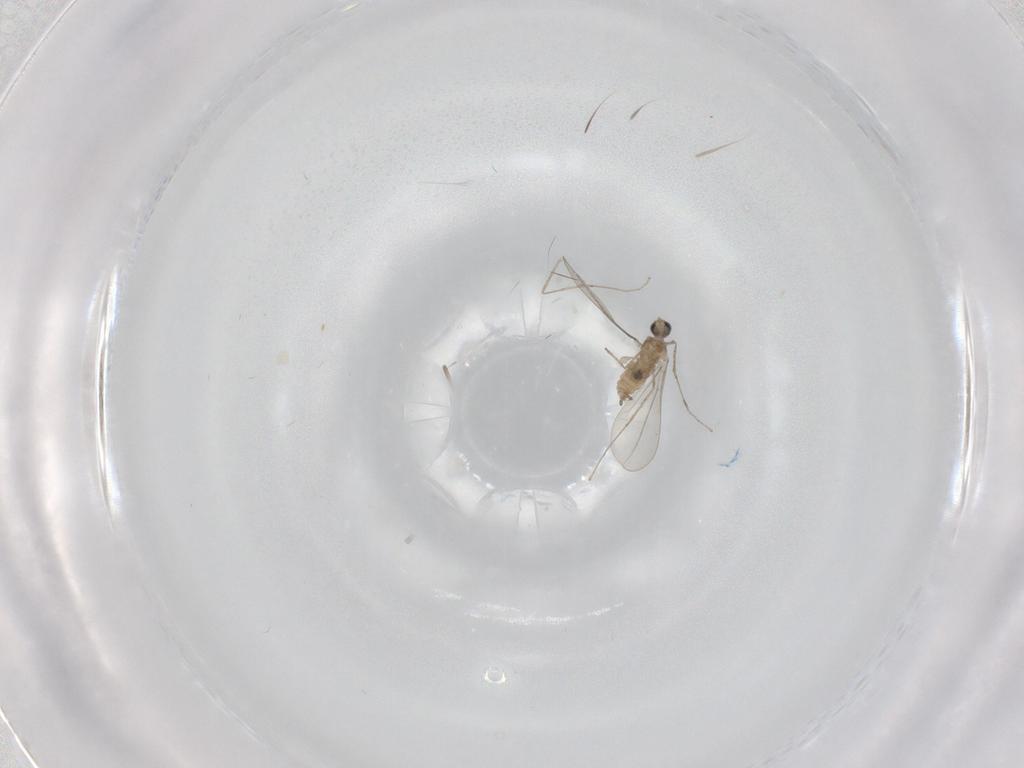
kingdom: Animalia
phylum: Arthropoda
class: Insecta
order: Diptera
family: Cecidomyiidae
